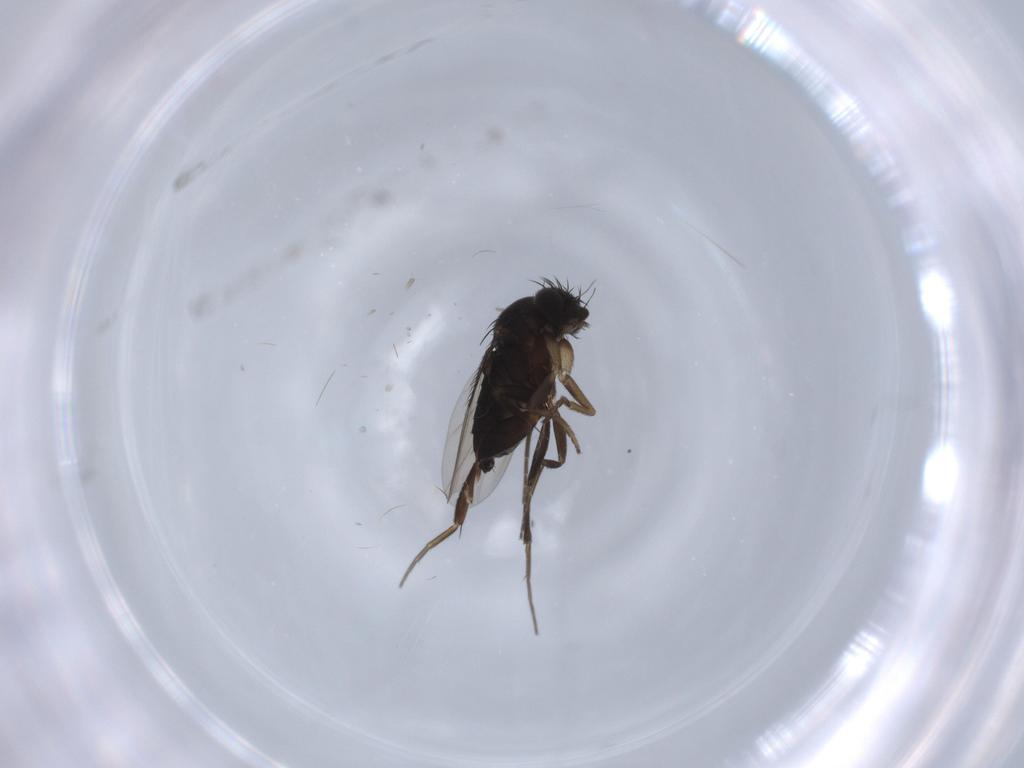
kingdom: Animalia
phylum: Arthropoda
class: Insecta
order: Diptera
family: Phoridae
